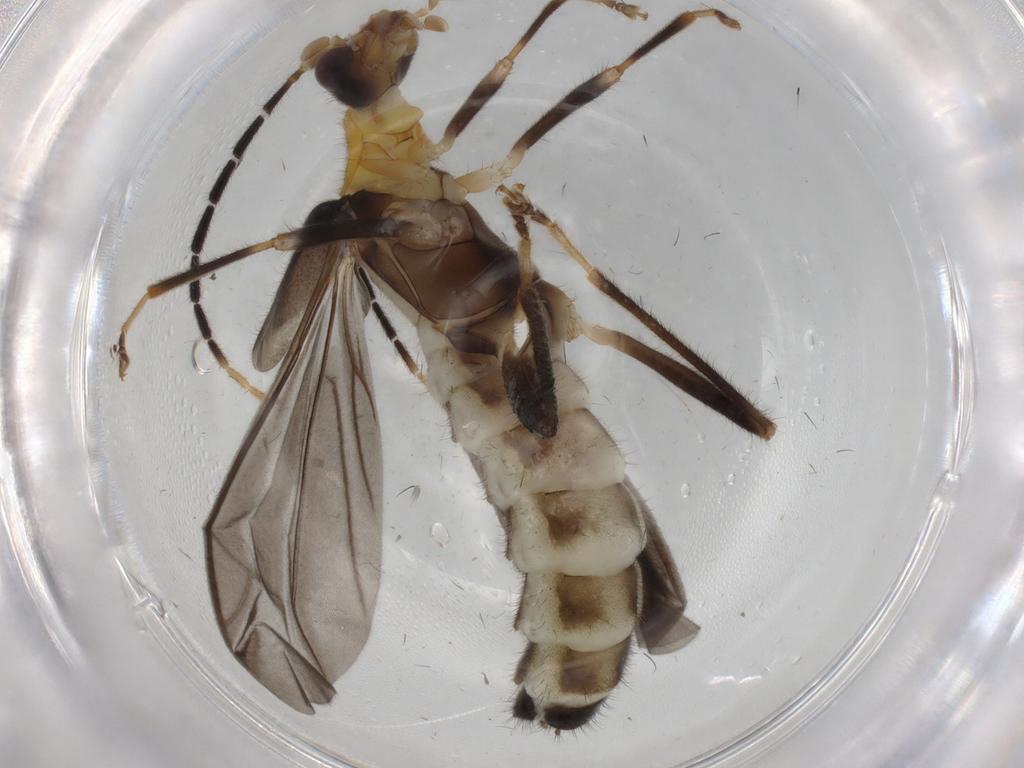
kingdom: Animalia
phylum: Arthropoda
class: Insecta
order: Coleoptera
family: Cantharidae
